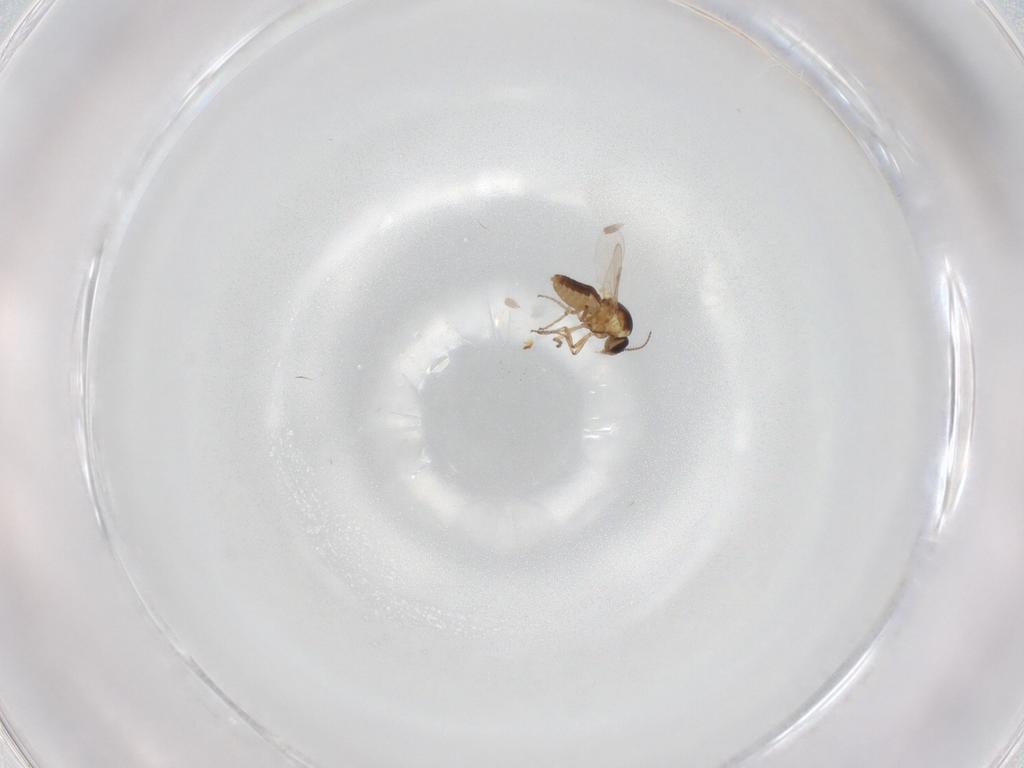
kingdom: Animalia
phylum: Arthropoda
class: Insecta
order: Diptera
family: Ceratopogonidae
